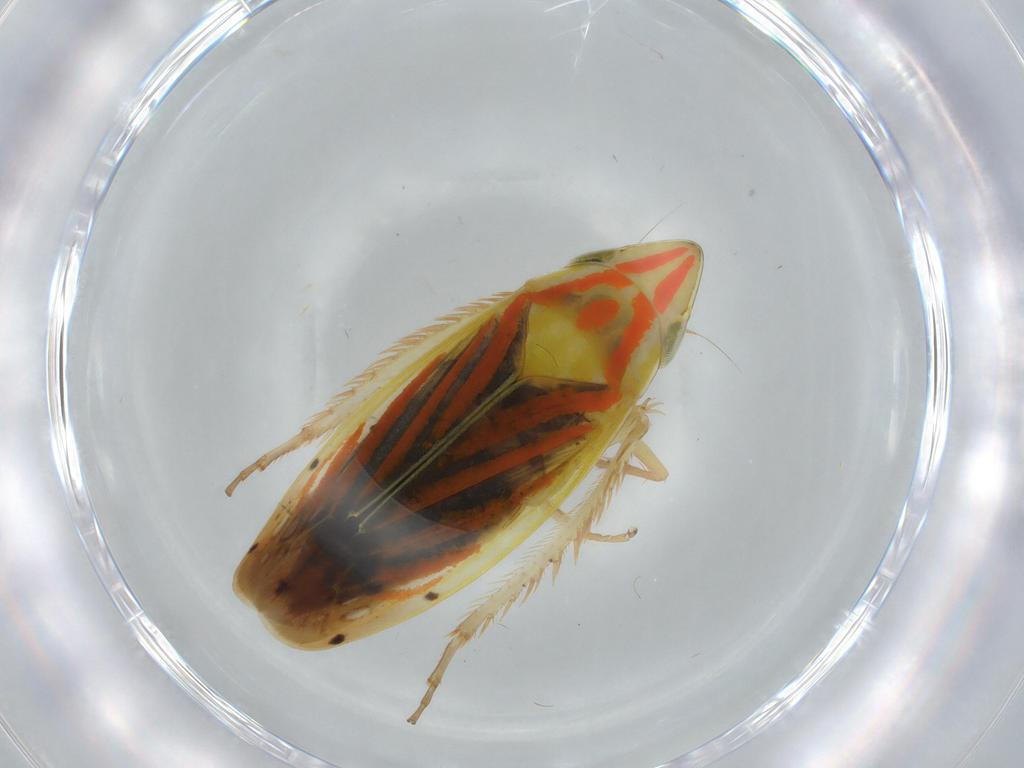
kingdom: Animalia
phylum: Arthropoda
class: Insecta
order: Hemiptera
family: Cicadellidae
